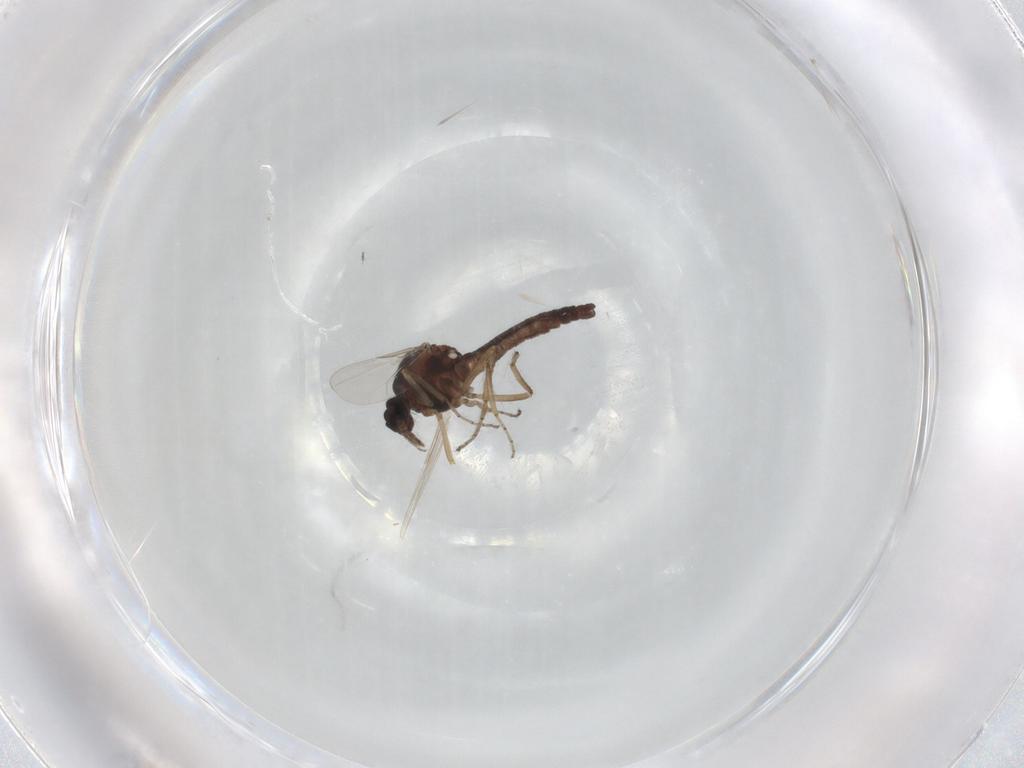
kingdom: Animalia
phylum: Arthropoda
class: Insecta
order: Diptera
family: Ceratopogonidae
